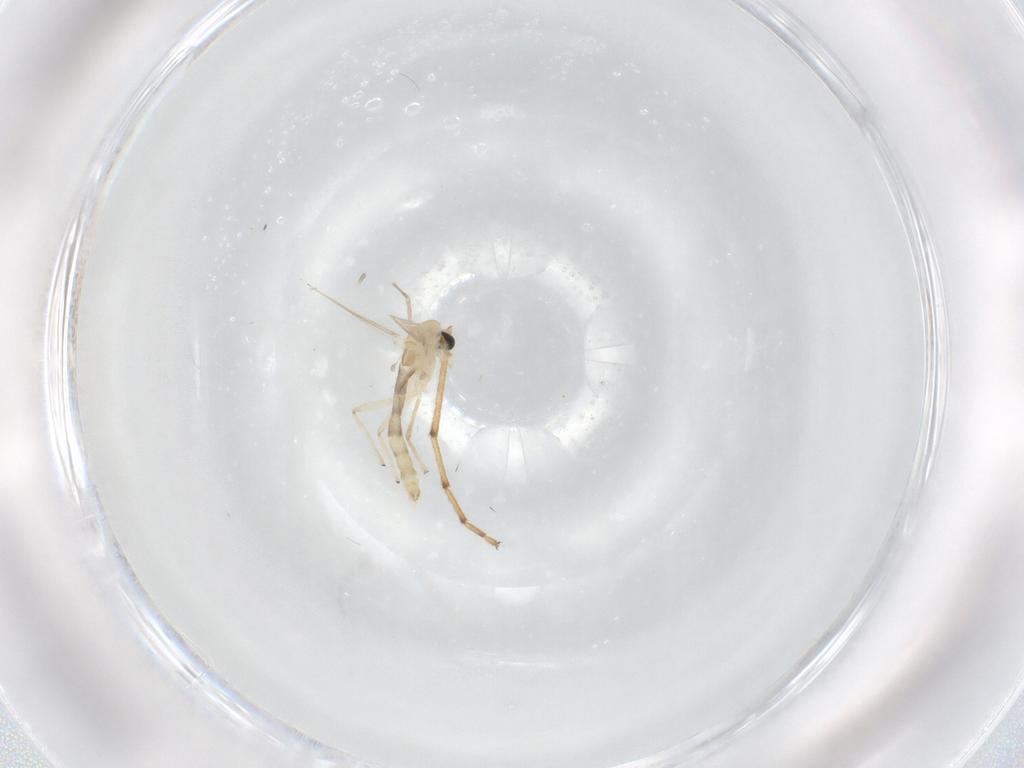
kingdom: Animalia
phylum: Arthropoda
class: Insecta
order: Diptera
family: Chironomidae
